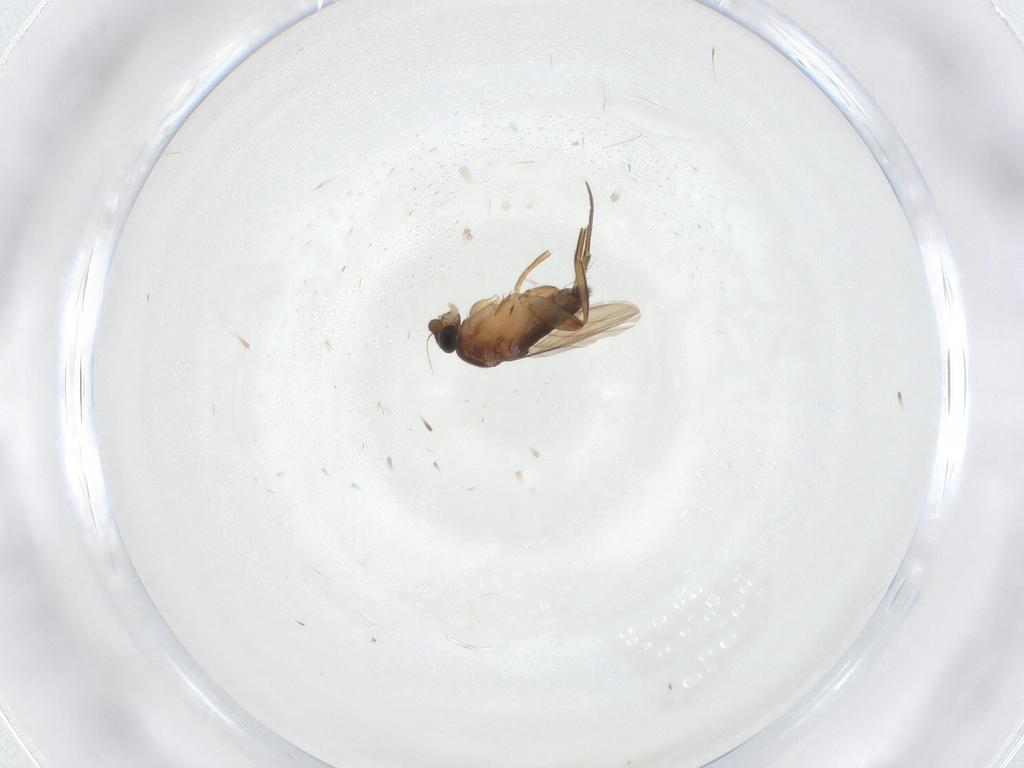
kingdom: Animalia
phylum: Arthropoda
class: Insecta
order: Diptera
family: Phoridae
